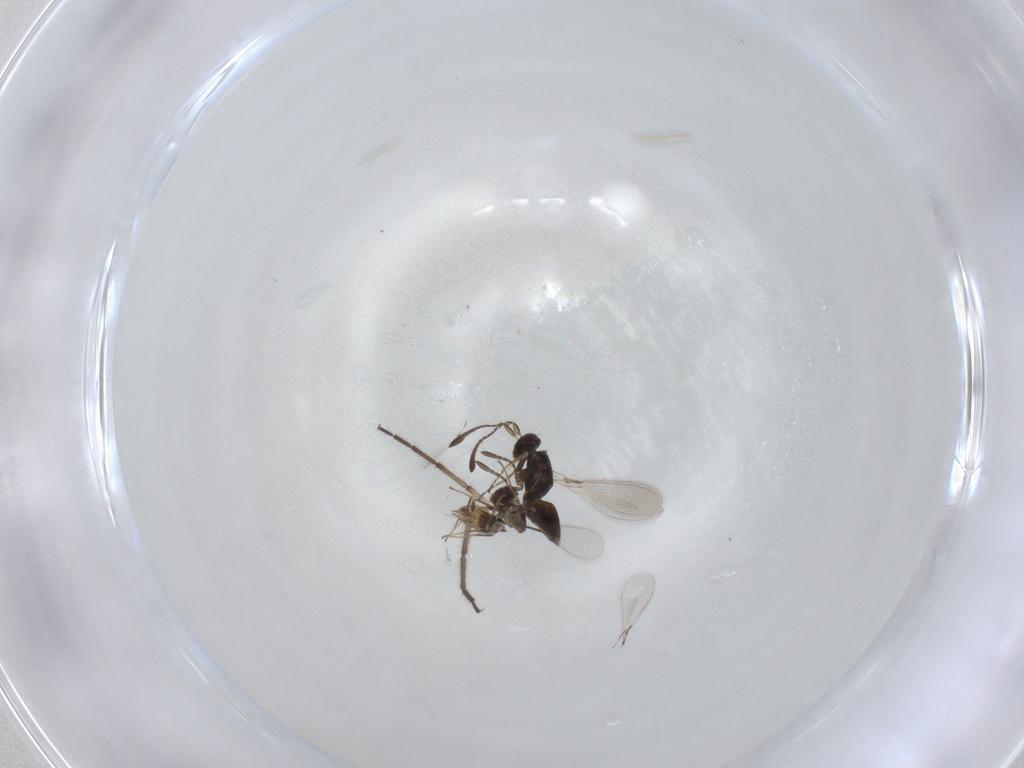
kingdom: Animalia
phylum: Arthropoda
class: Insecta
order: Hymenoptera
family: Mymaridae
